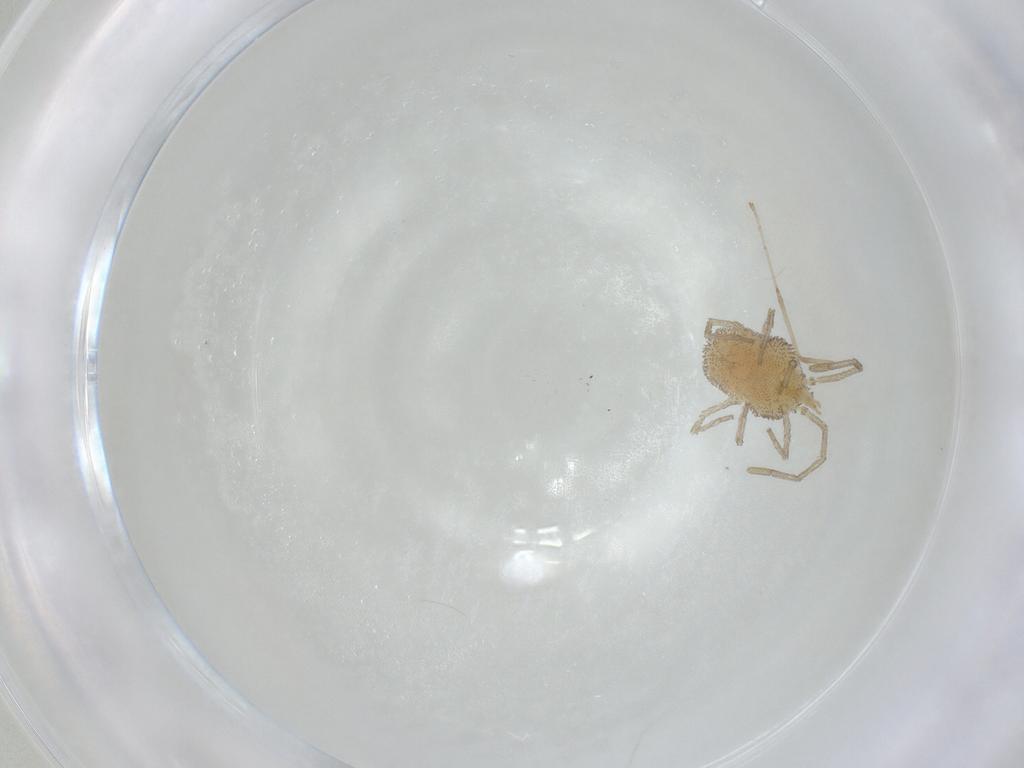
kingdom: Animalia
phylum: Arthropoda
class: Arachnida
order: Trombidiformes
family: Smarididae
